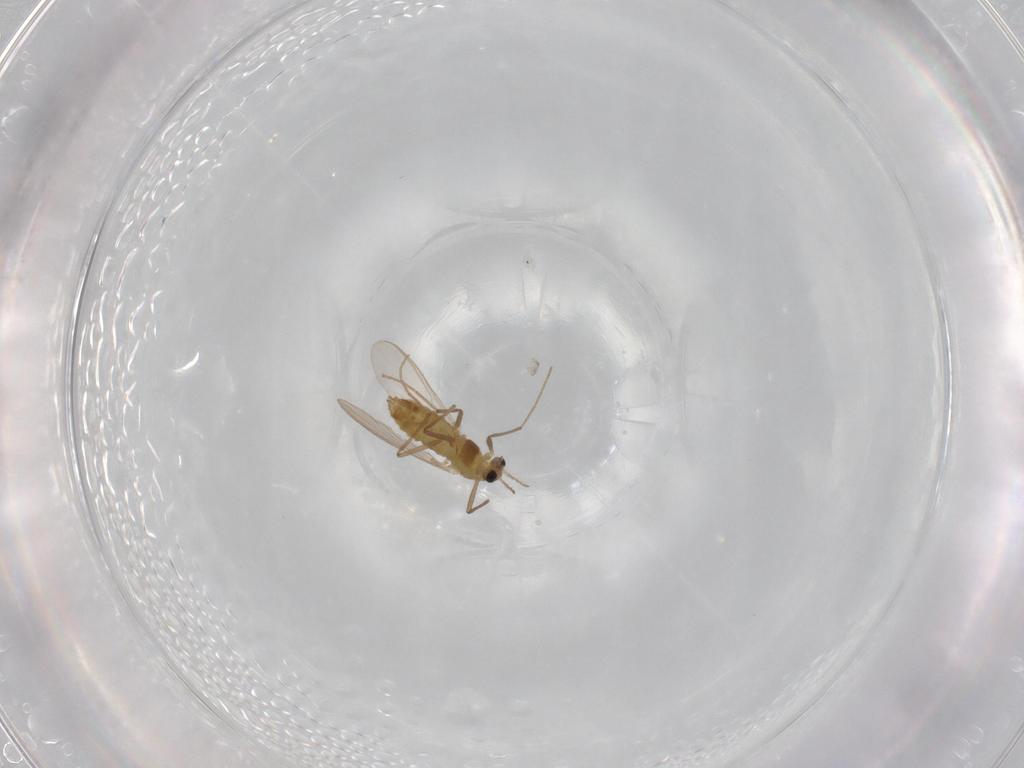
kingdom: Animalia
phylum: Arthropoda
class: Insecta
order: Diptera
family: Chironomidae
